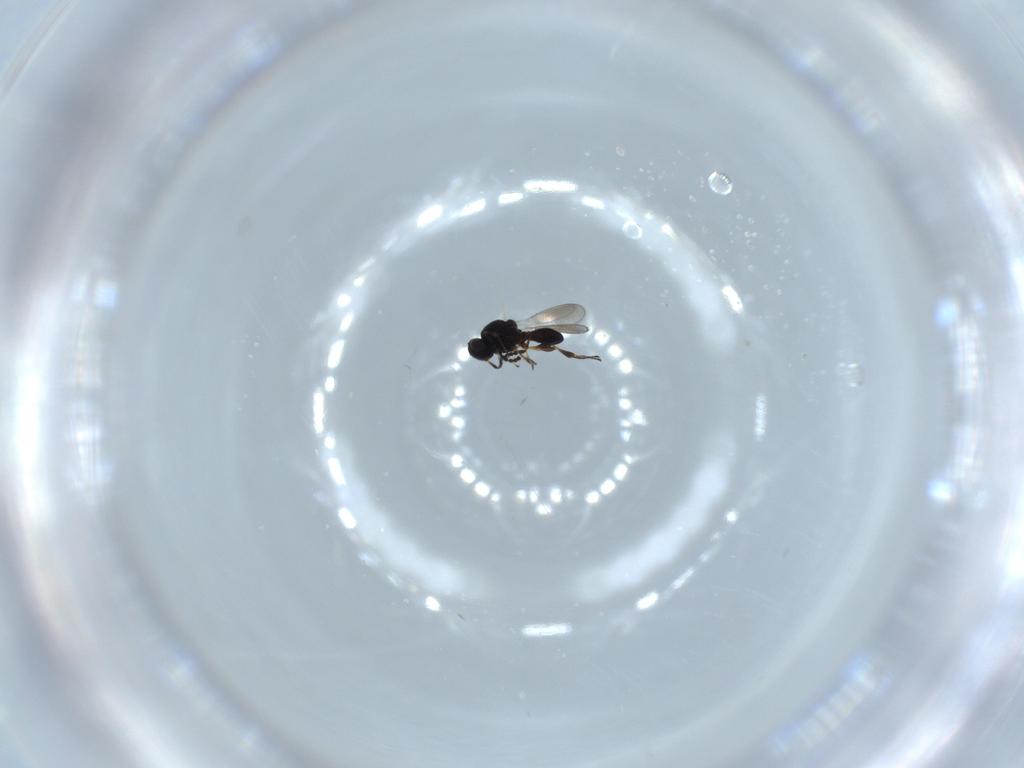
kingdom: Animalia
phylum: Arthropoda
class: Insecta
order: Hymenoptera
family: Platygastridae
